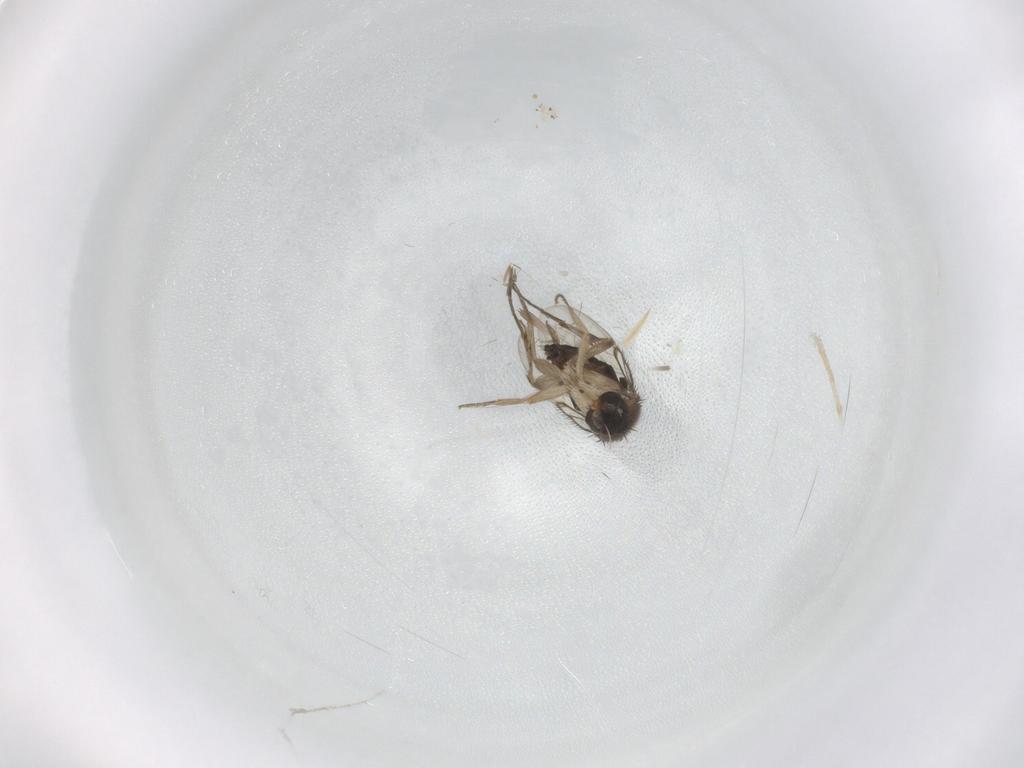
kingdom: Animalia
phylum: Arthropoda
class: Insecta
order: Diptera
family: Cecidomyiidae
